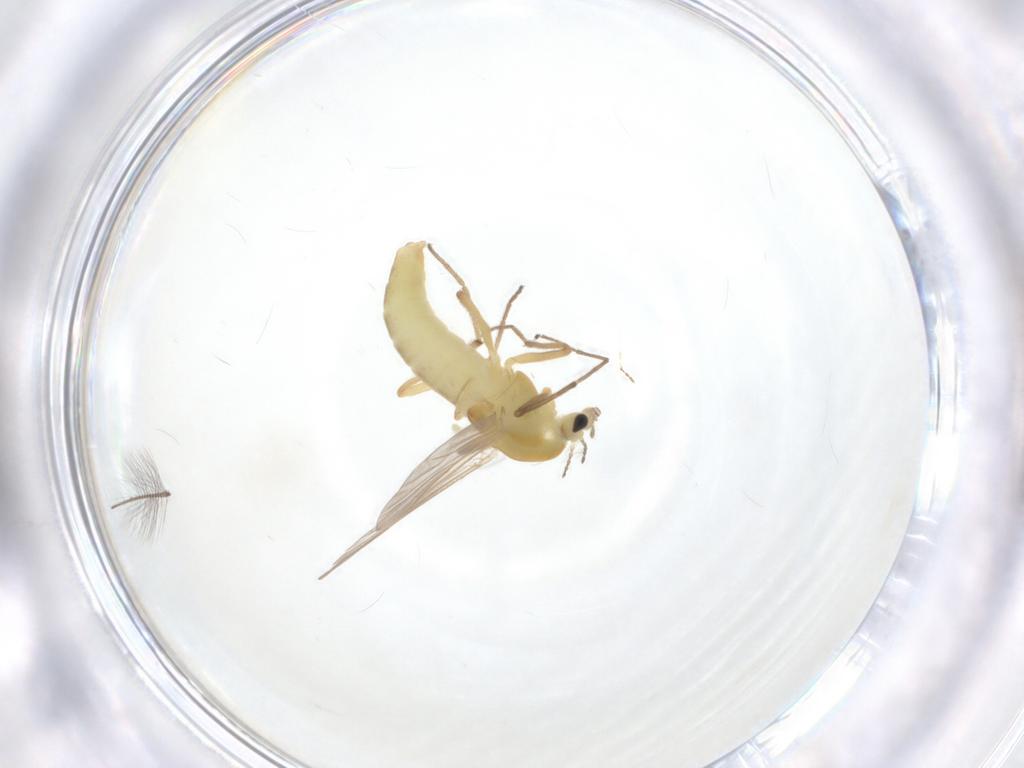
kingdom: Animalia
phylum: Arthropoda
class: Insecta
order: Diptera
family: Chironomidae
